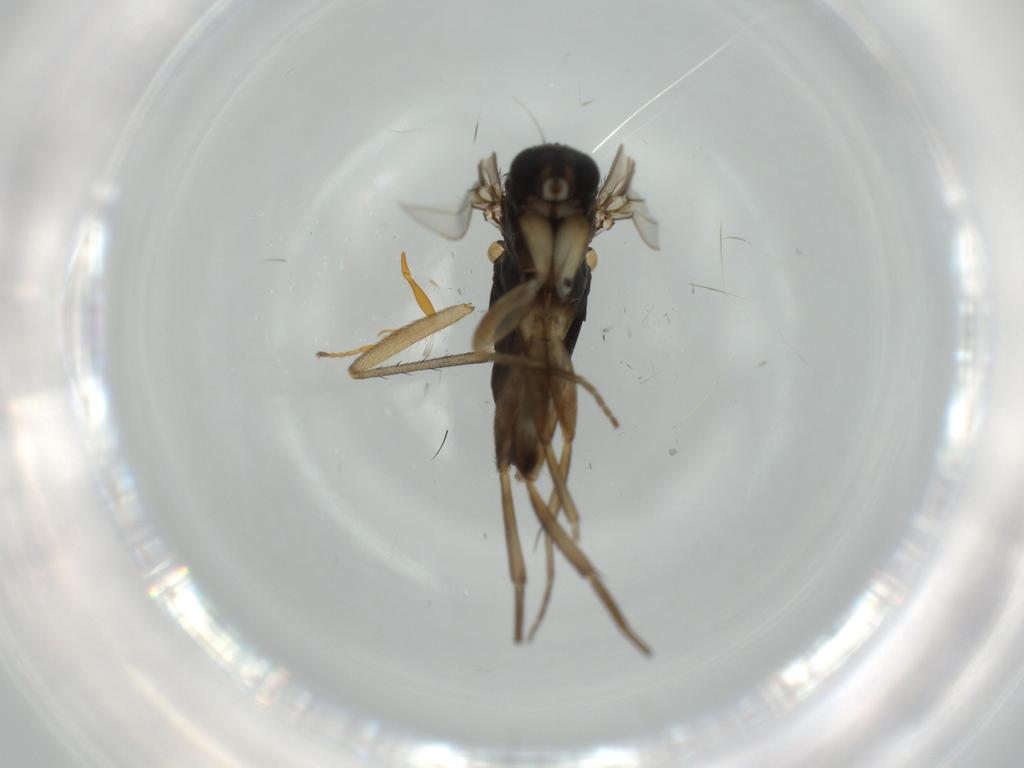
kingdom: Animalia
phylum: Arthropoda
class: Insecta
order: Diptera
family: Phoridae
